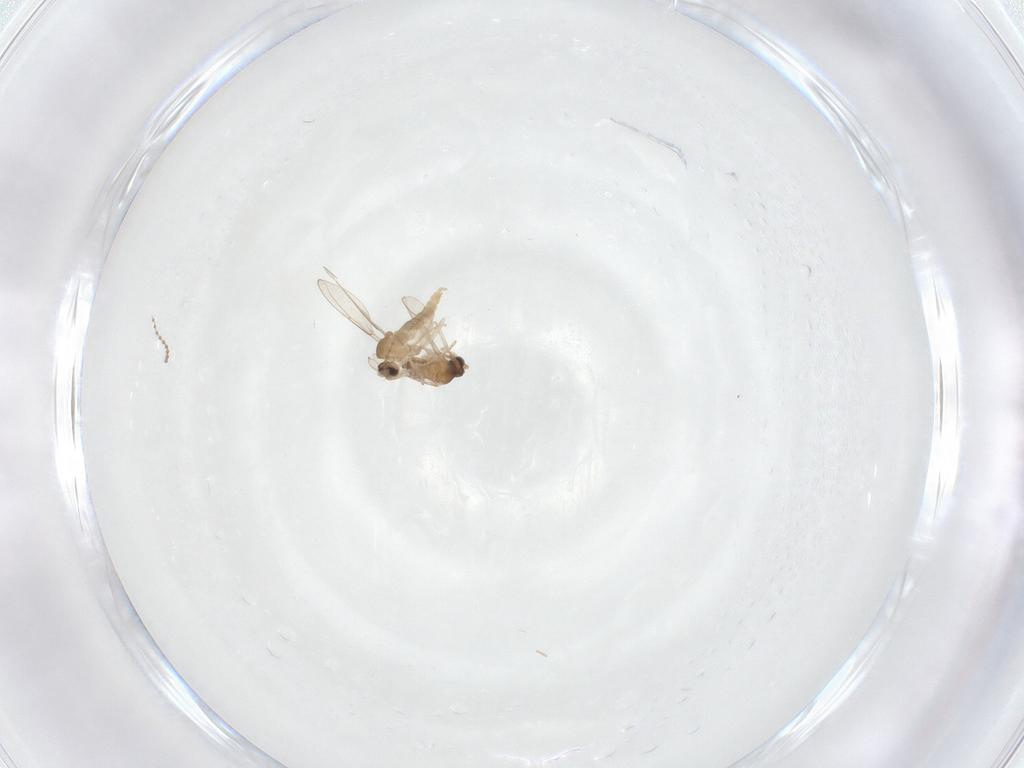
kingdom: Animalia
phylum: Arthropoda
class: Insecta
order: Diptera
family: Cecidomyiidae
